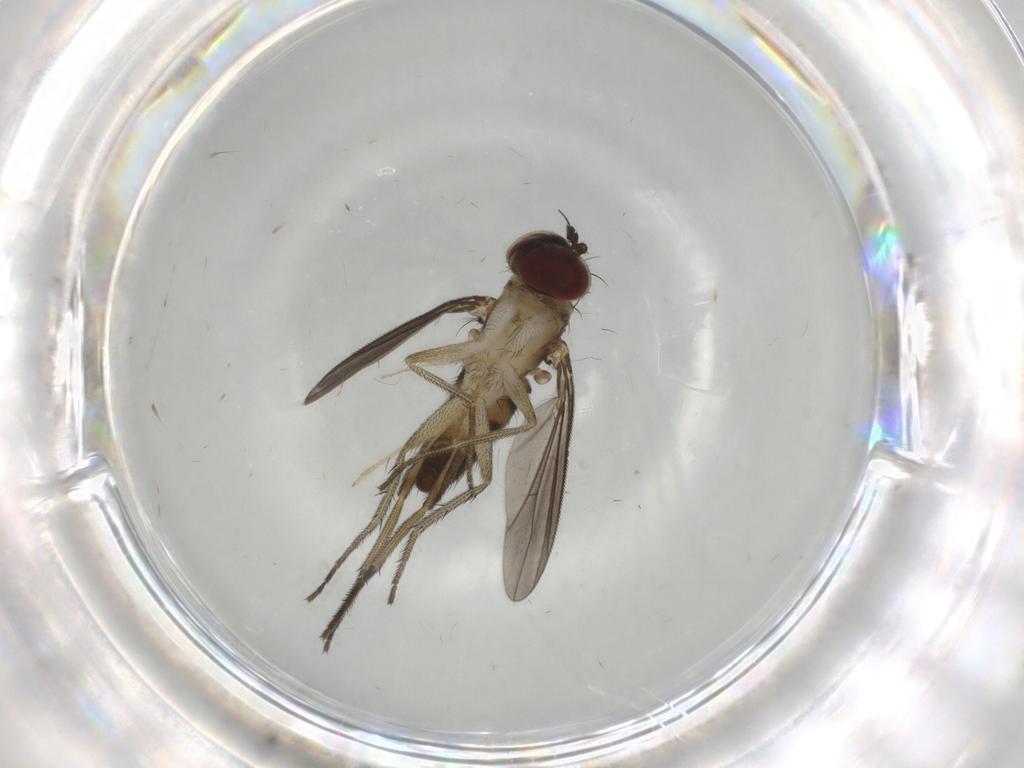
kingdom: Animalia
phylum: Arthropoda
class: Insecta
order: Diptera
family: Dolichopodidae
